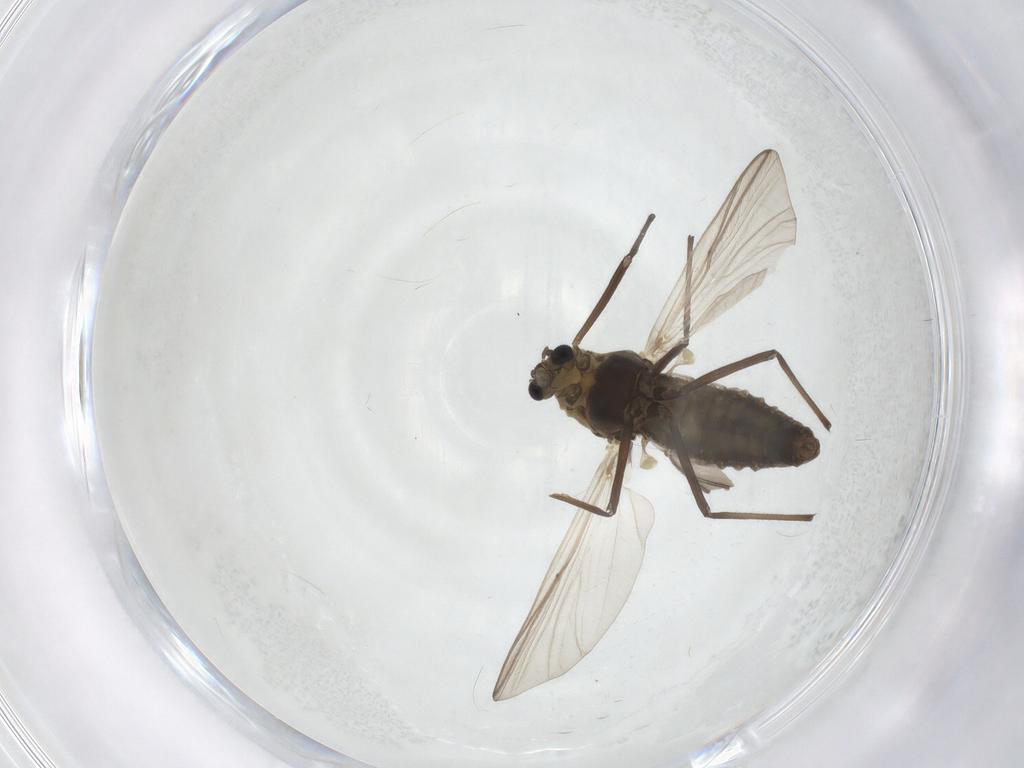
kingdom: Animalia
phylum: Arthropoda
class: Insecta
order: Diptera
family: Chironomidae
